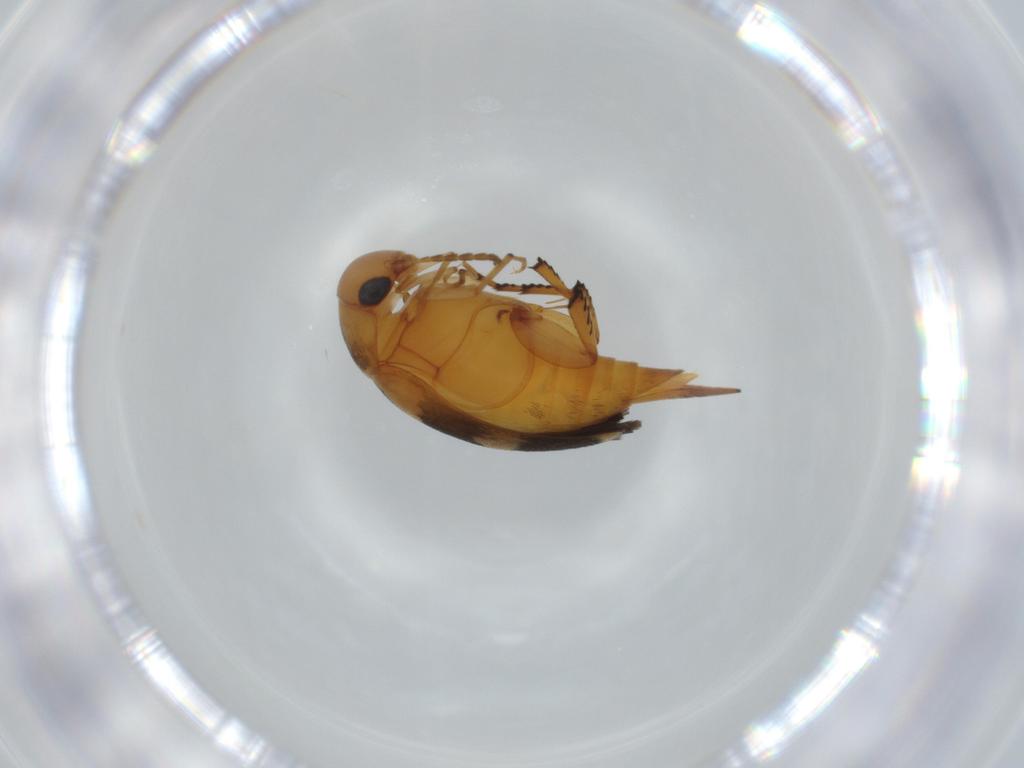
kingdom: Animalia
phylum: Arthropoda
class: Insecta
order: Coleoptera
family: Mordellidae
